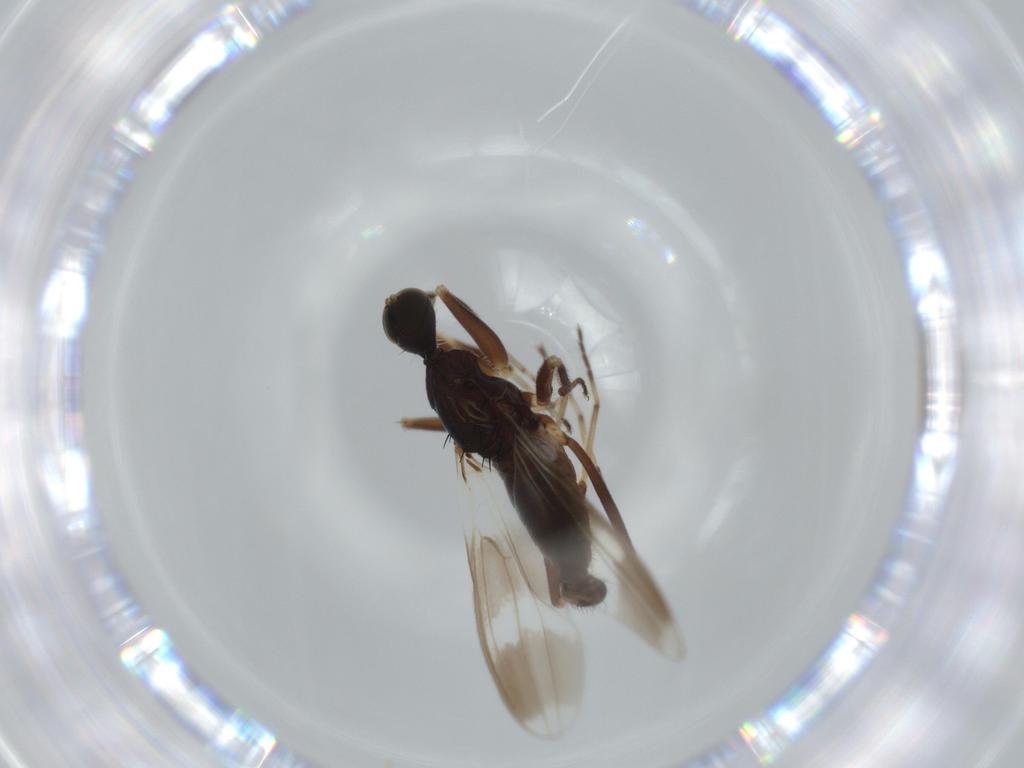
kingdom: Animalia
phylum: Arthropoda
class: Insecta
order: Diptera
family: Hybotidae
